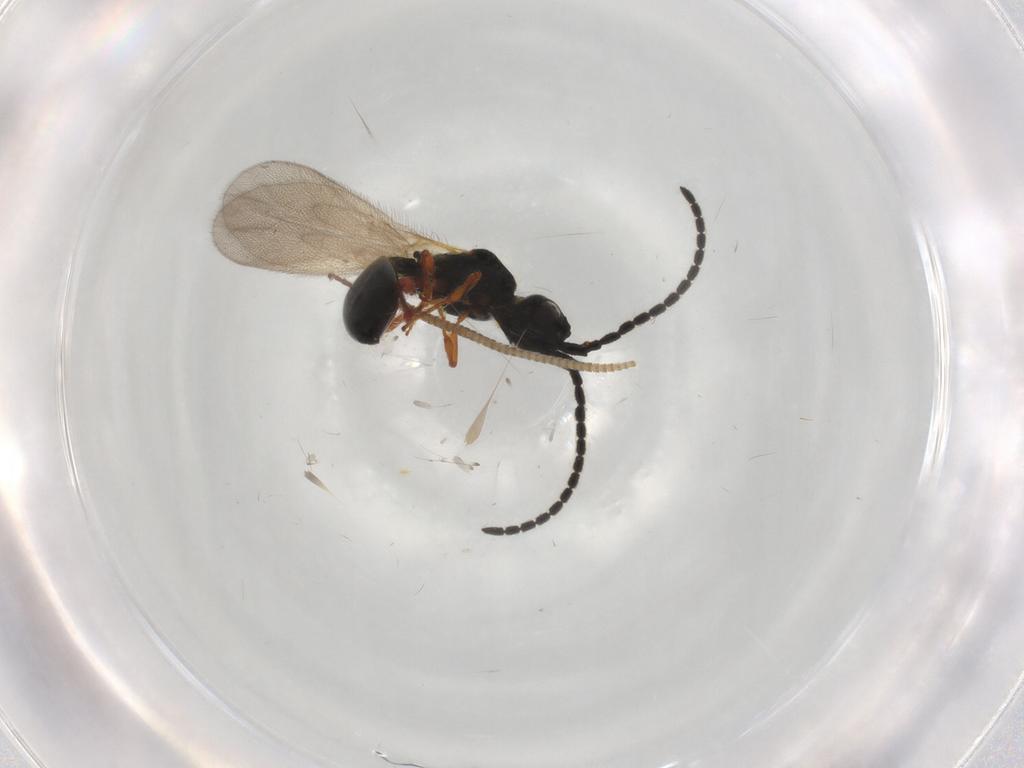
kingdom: Animalia
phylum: Arthropoda
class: Insecta
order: Hymenoptera
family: Diapriidae
